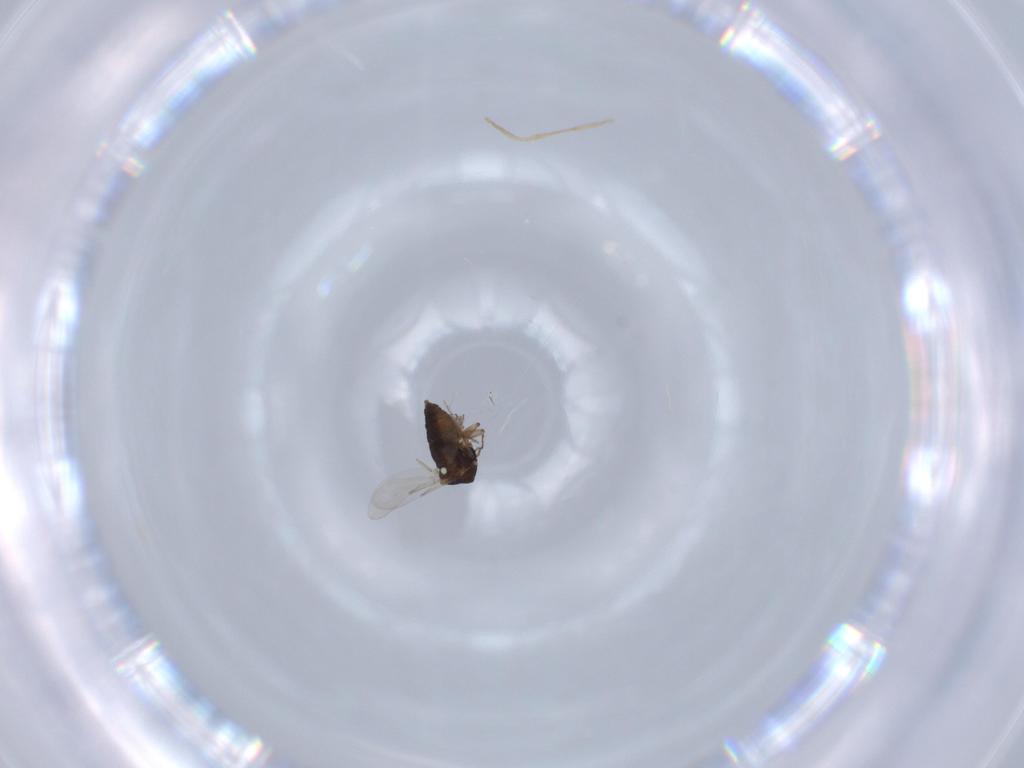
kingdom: Animalia
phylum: Arthropoda
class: Insecta
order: Diptera
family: Ceratopogonidae
